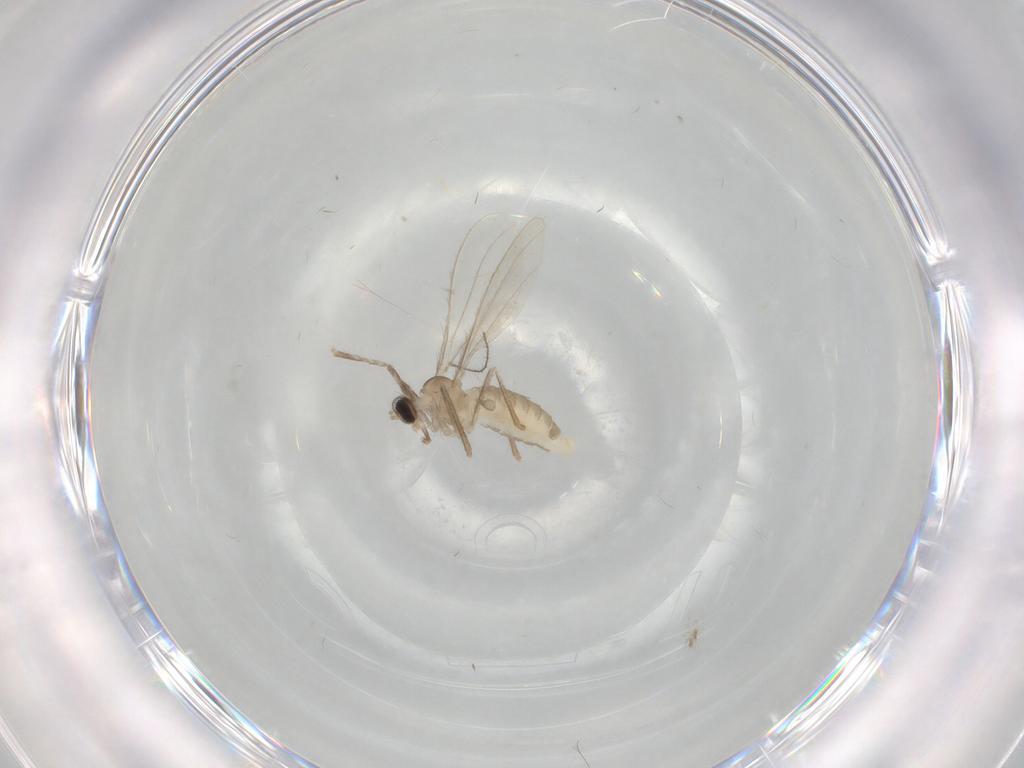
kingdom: Animalia
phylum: Arthropoda
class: Insecta
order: Diptera
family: Cecidomyiidae
